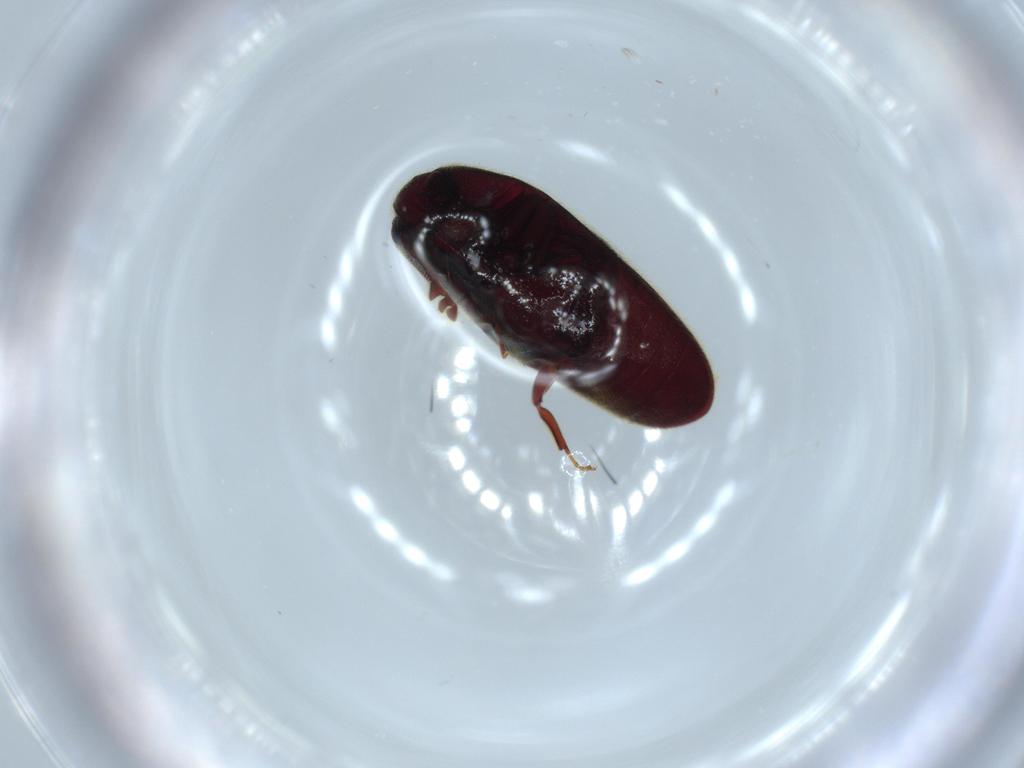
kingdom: Animalia
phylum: Arthropoda
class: Insecta
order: Coleoptera
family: Throscidae
